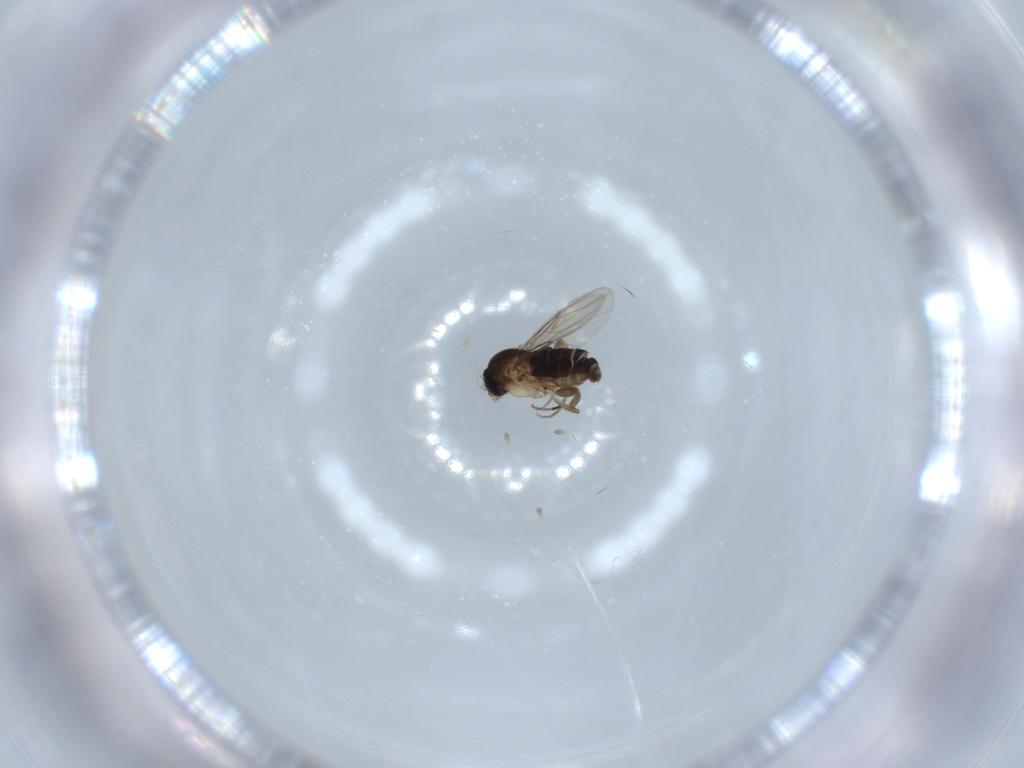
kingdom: Animalia
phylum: Arthropoda
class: Insecta
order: Diptera
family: Phoridae
